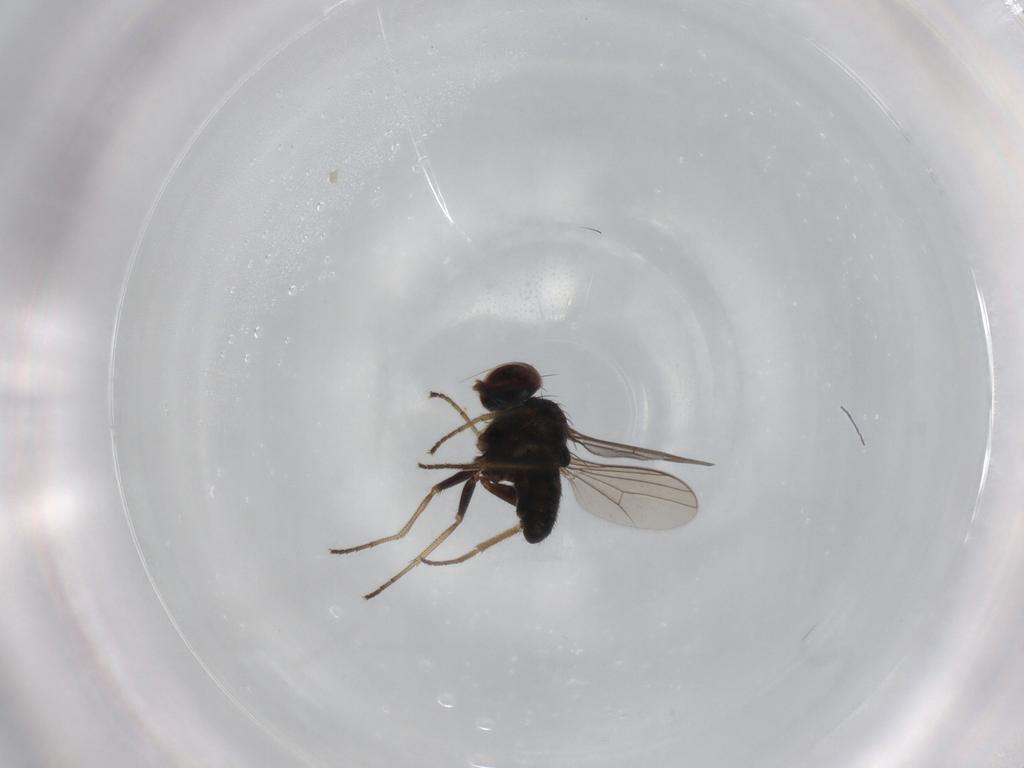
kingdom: Animalia
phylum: Arthropoda
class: Insecta
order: Diptera
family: Dolichopodidae
